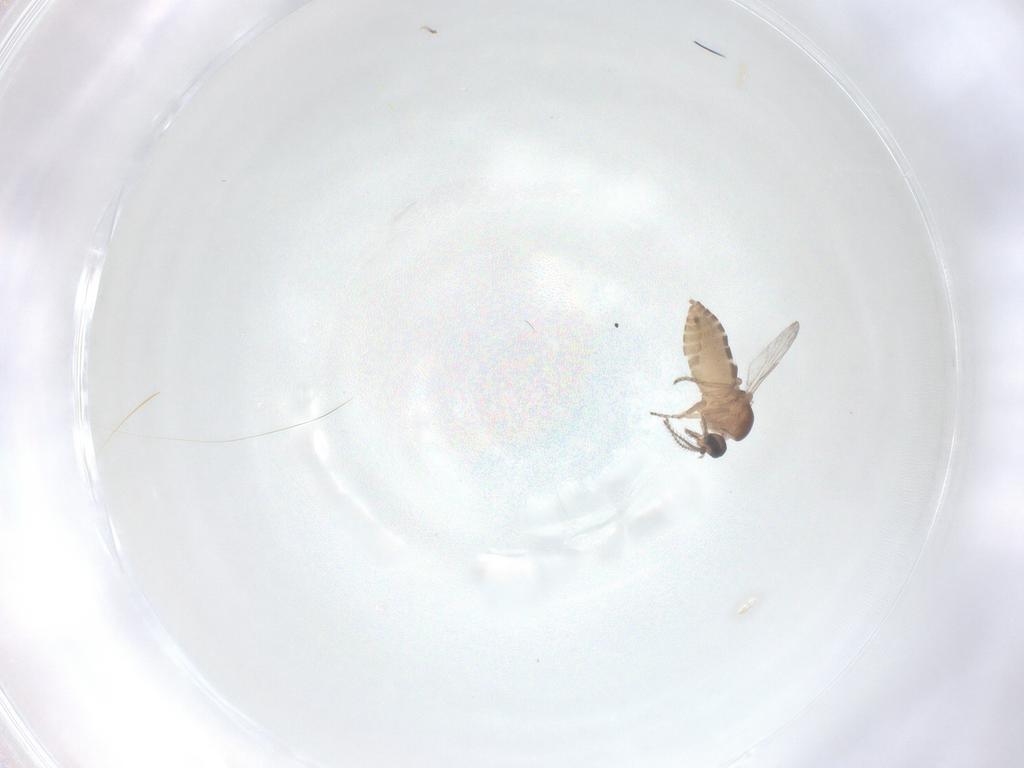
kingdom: Animalia
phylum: Arthropoda
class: Insecta
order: Diptera
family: Ceratopogonidae
